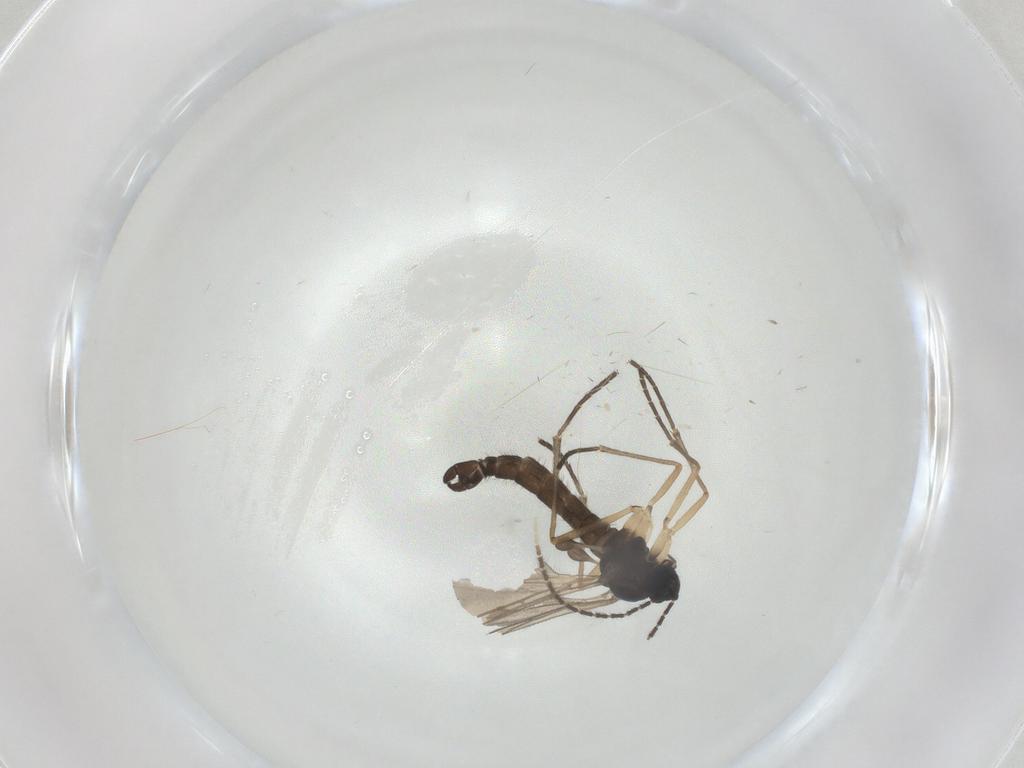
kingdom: Animalia
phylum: Arthropoda
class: Insecta
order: Diptera
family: Sciaridae
